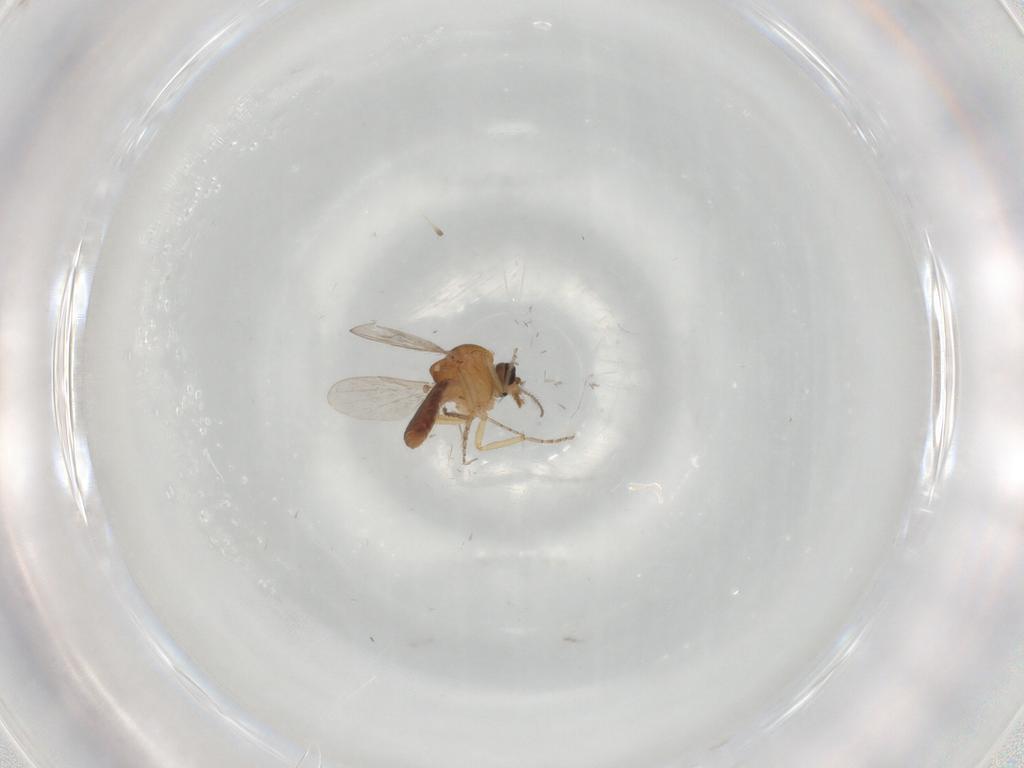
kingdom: Animalia
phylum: Arthropoda
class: Insecta
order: Diptera
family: Ceratopogonidae
